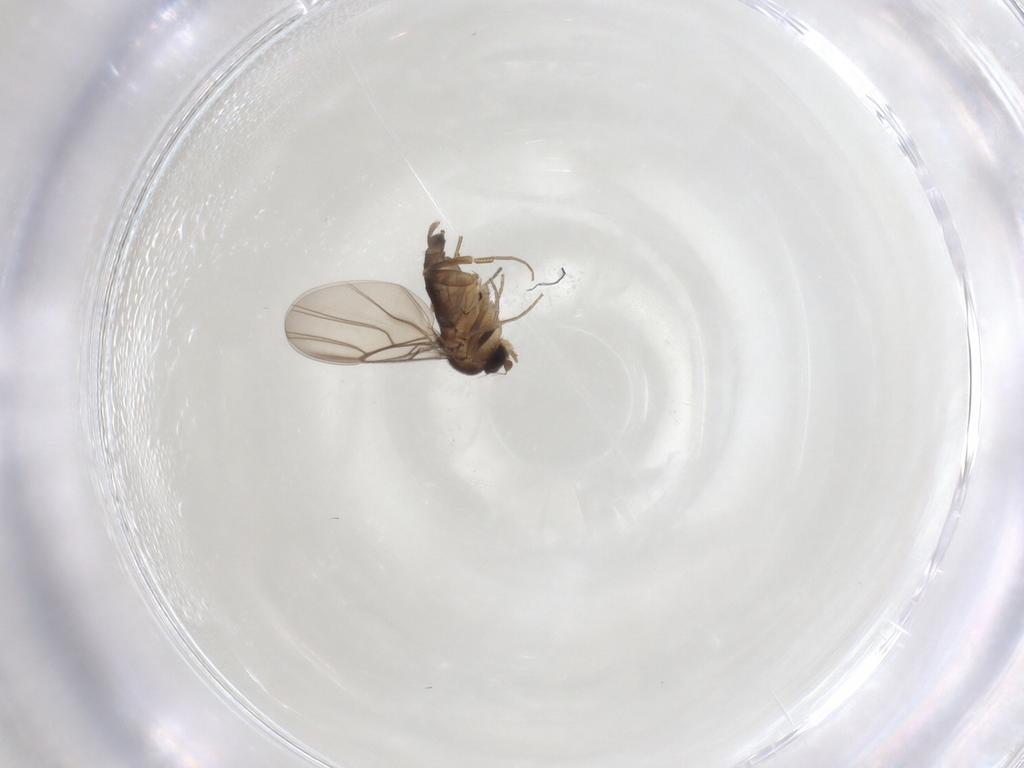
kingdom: Animalia
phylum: Arthropoda
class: Insecta
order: Diptera
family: Phoridae
